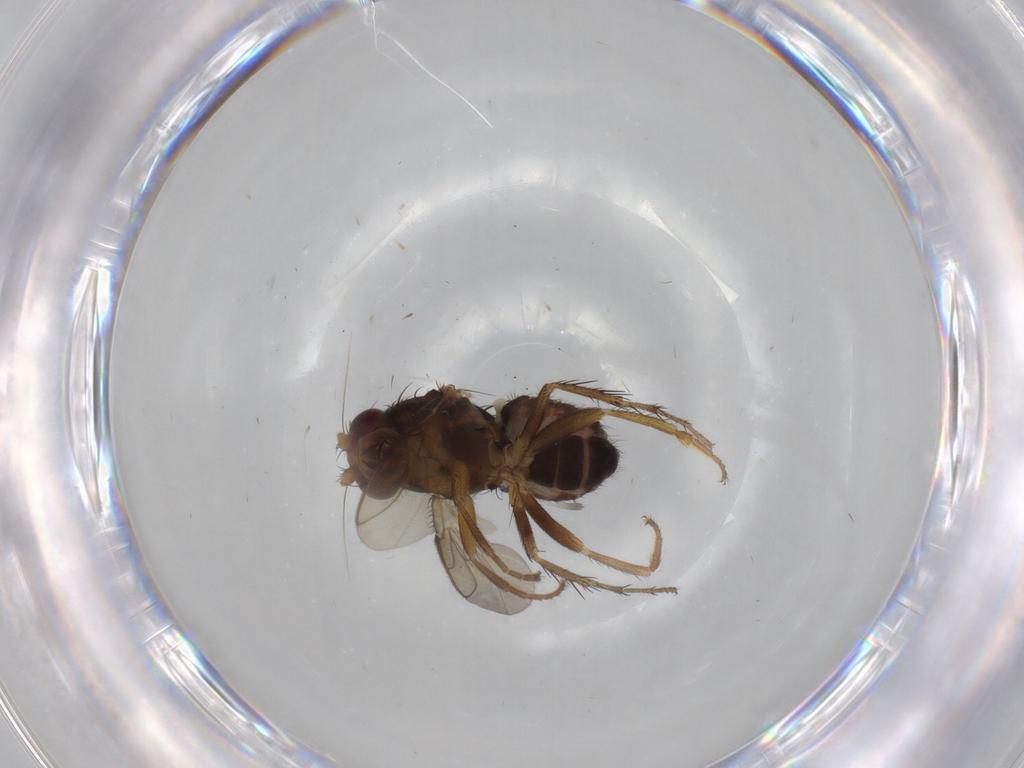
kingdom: Animalia
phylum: Arthropoda
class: Insecta
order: Diptera
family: Sphaeroceridae
